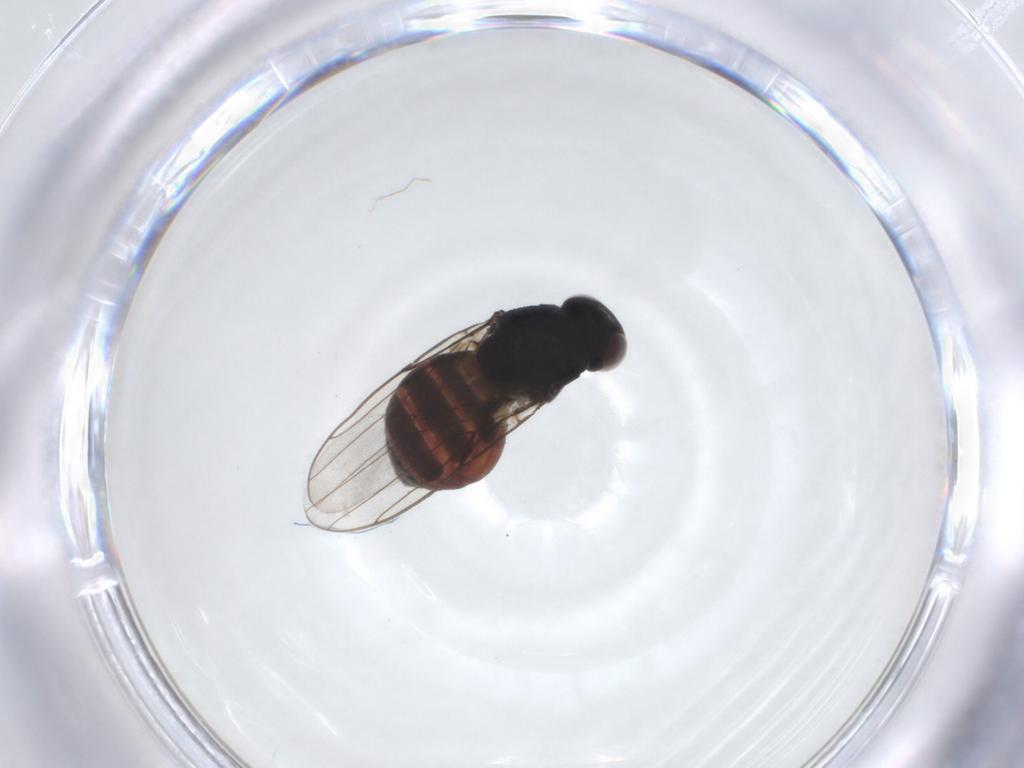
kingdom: Animalia
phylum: Arthropoda
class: Insecta
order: Diptera
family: Chloropidae
